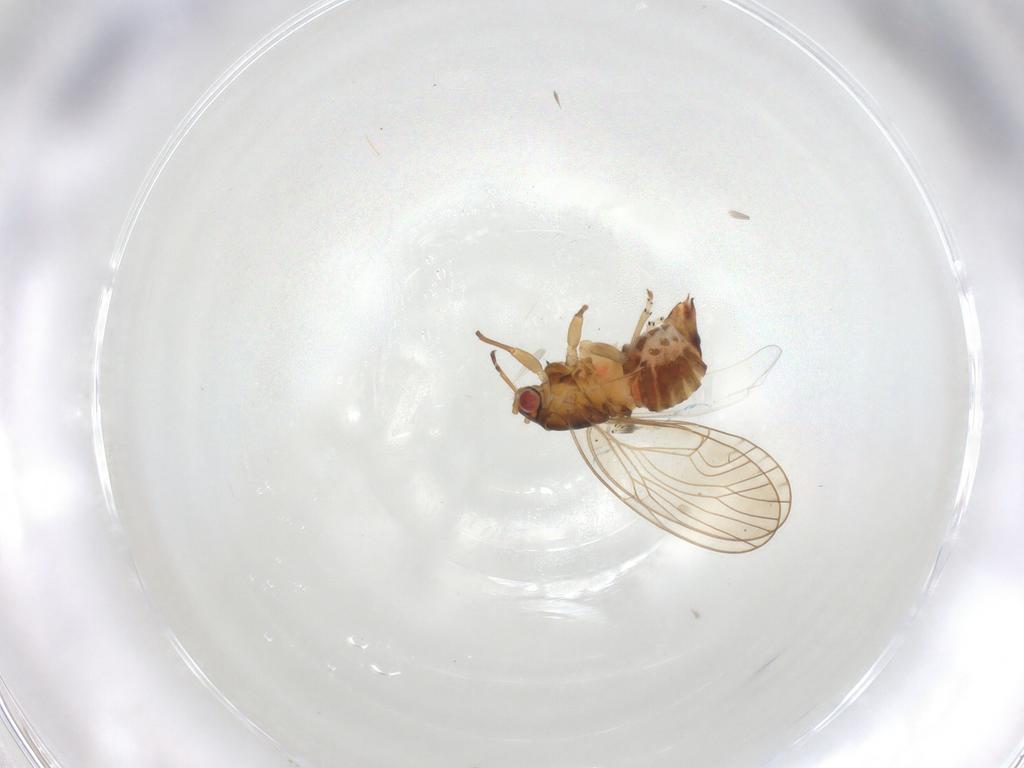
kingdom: Animalia
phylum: Arthropoda
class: Insecta
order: Hemiptera
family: Psyllidae
